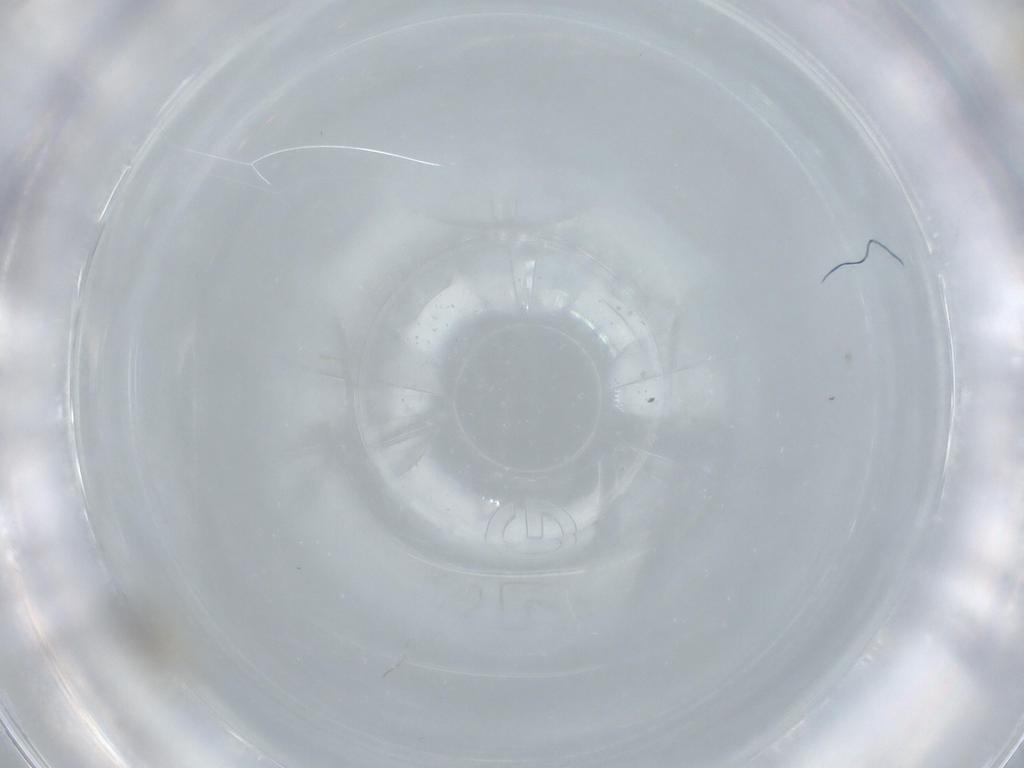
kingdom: Animalia
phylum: Arthropoda
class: Insecta
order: Diptera
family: Cecidomyiidae
